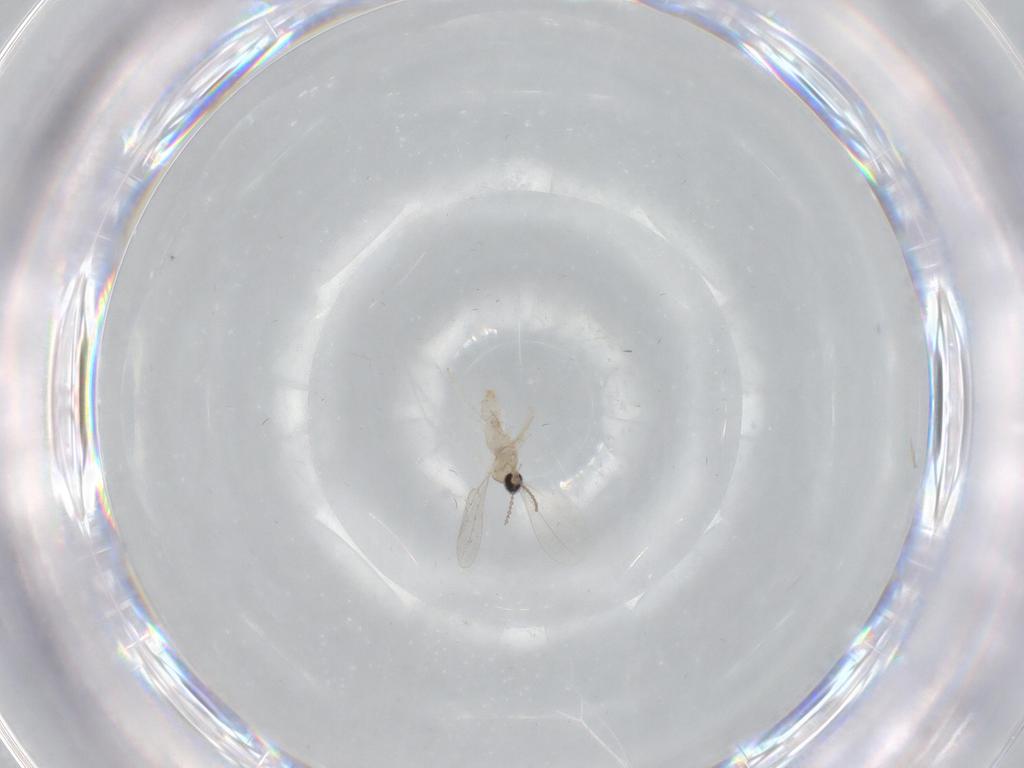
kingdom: Animalia
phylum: Arthropoda
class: Insecta
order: Diptera
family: Cecidomyiidae
